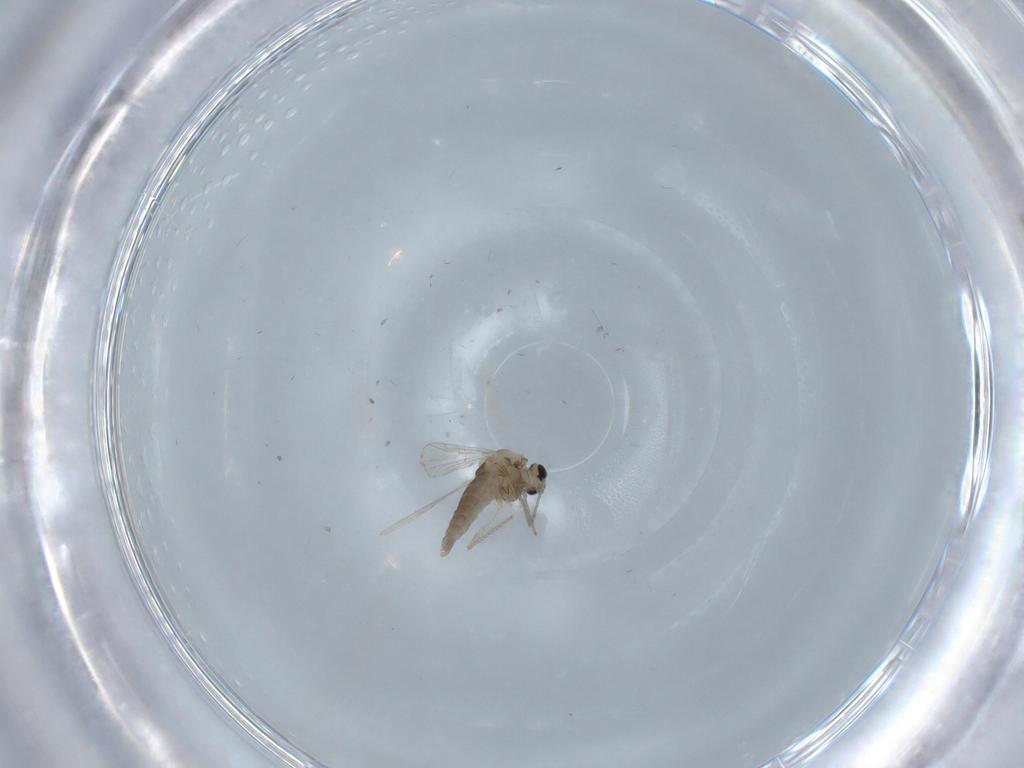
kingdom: Animalia
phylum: Arthropoda
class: Insecta
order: Diptera
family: Chironomidae
